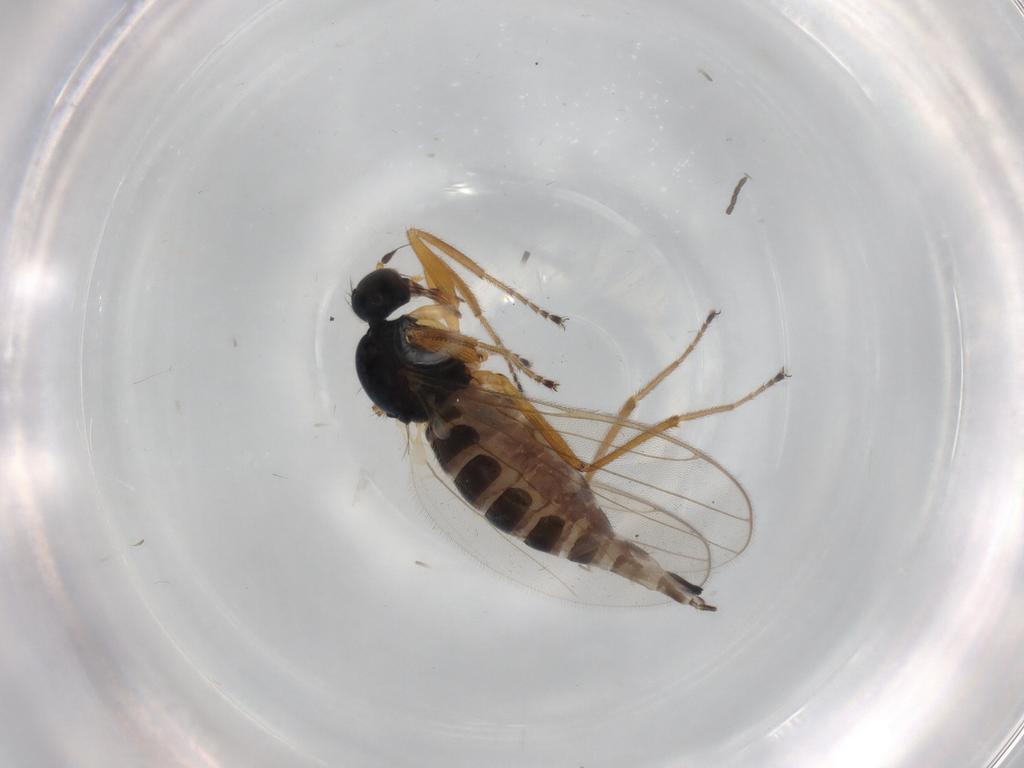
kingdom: Animalia
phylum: Arthropoda
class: Insecta
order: Diptera
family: Hybotidae
